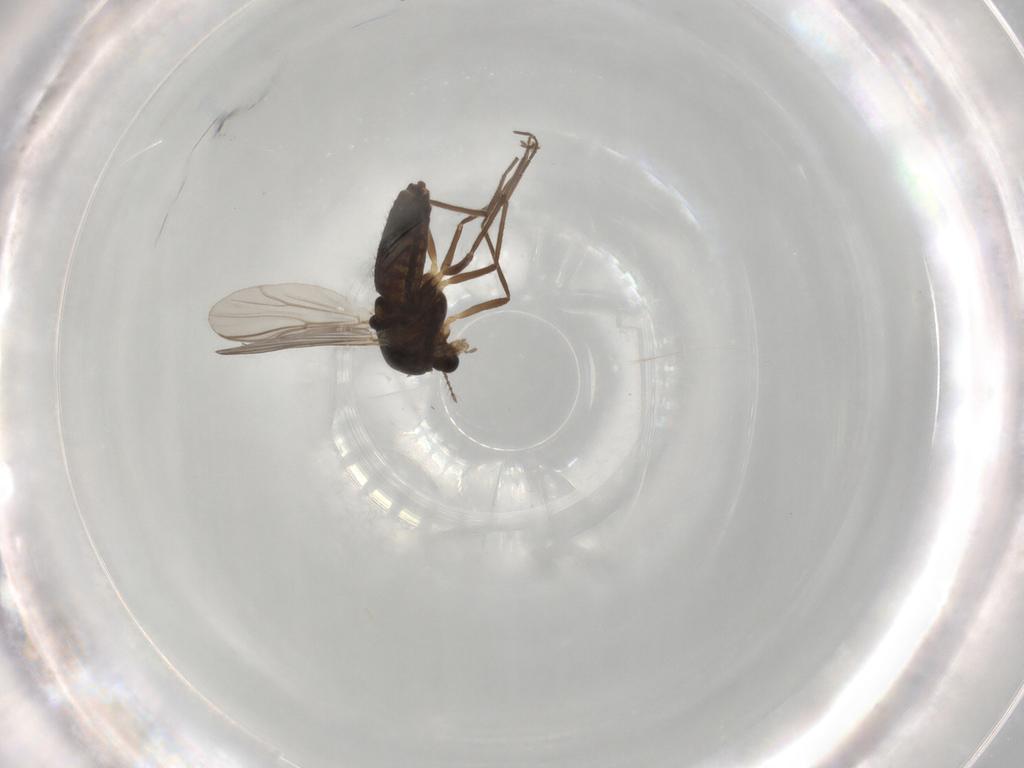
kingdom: Animalia
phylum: Arthropoda
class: Insecta
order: Diptera
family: Chironomidae
